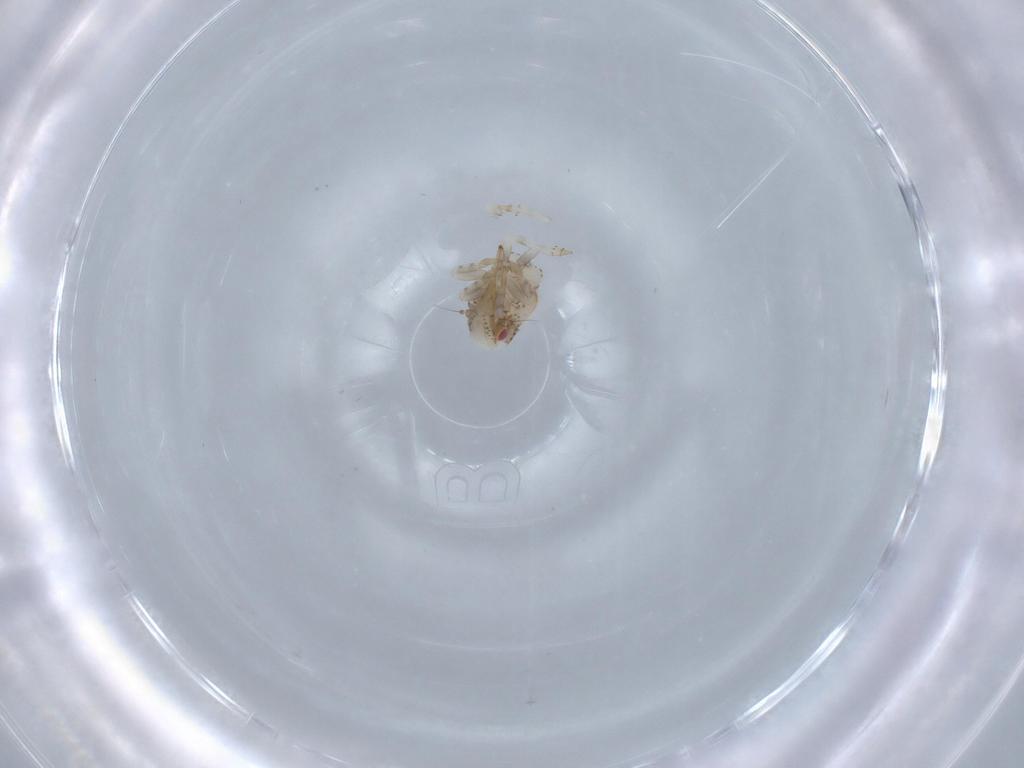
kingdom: Animalia
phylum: Arthropoda
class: Insecta
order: Hemiptera
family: Acanaloniidae
